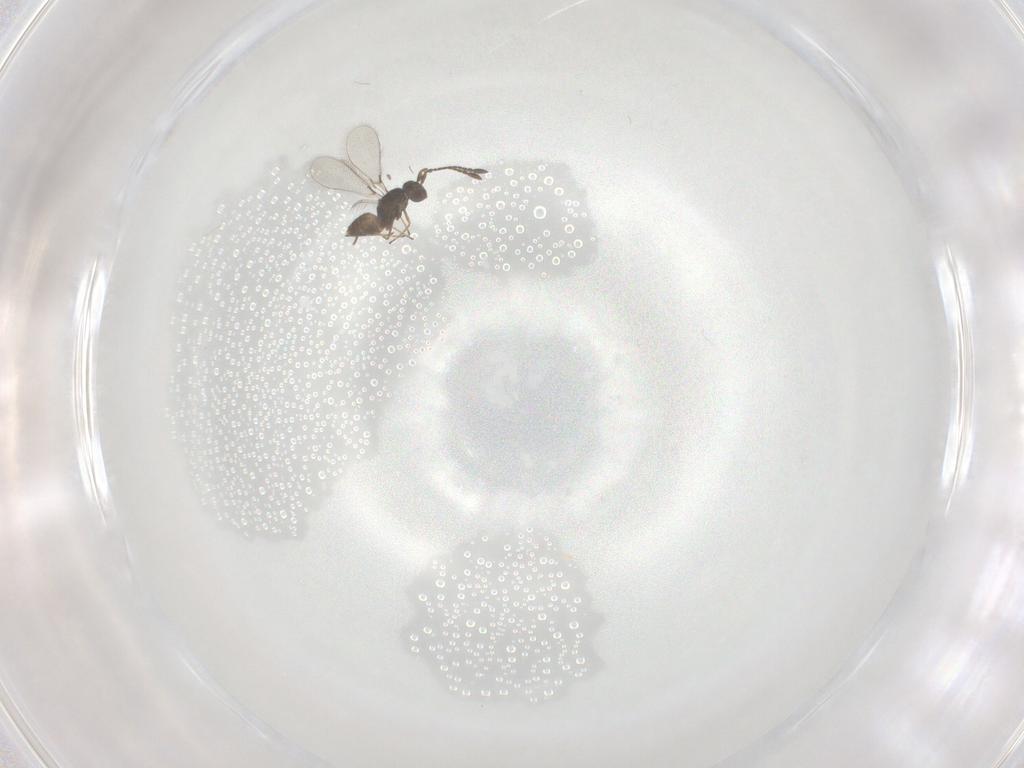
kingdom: Animalia
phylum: Arthropoda
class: Insecta
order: Hymenoptera
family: Mymaridae
